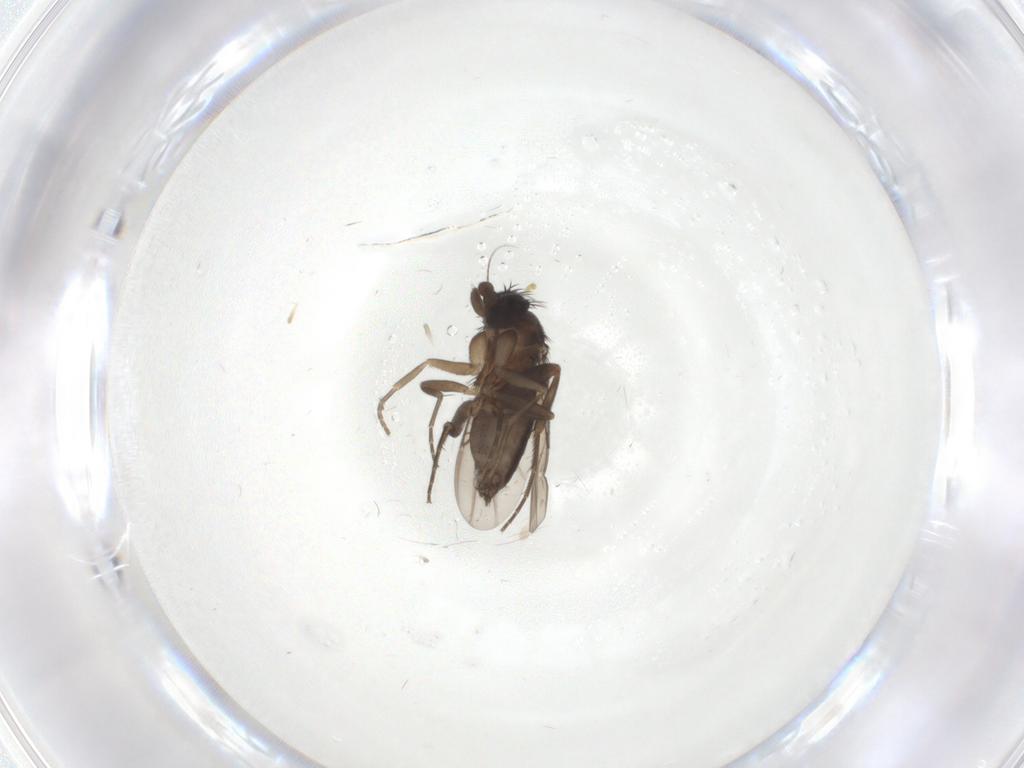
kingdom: Animalia
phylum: Arthropoda
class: Insecta
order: Diptera
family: Phoridae
